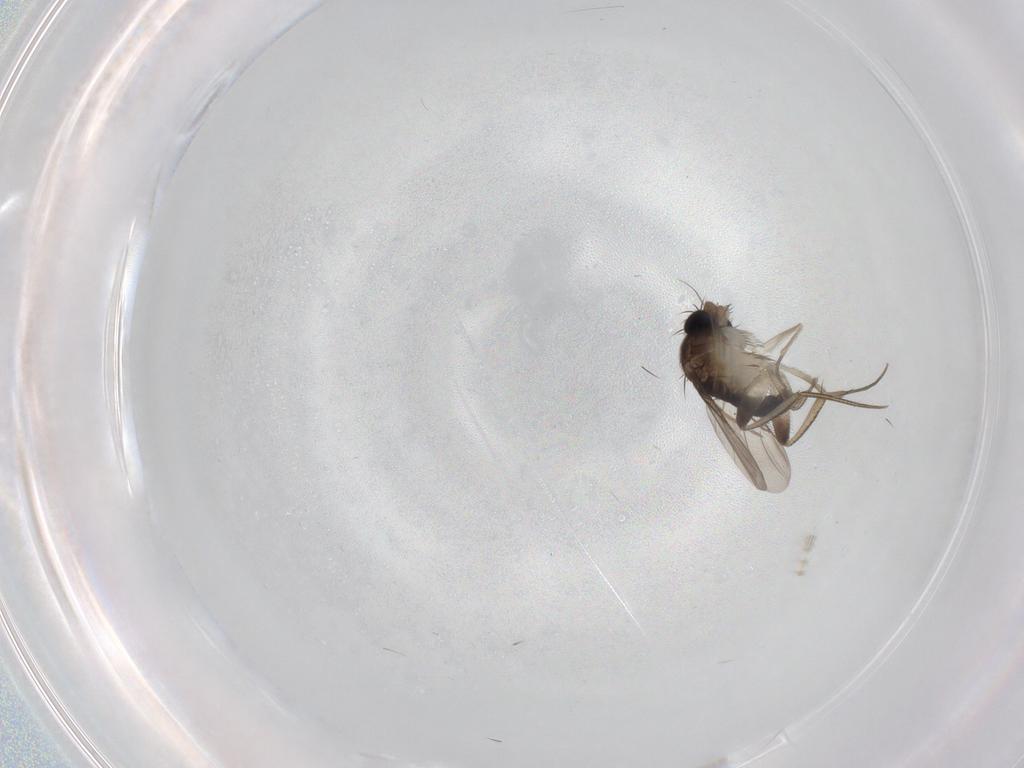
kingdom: Animalia
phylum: Arthropoda
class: Insecta
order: Diptera
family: Phoridae
